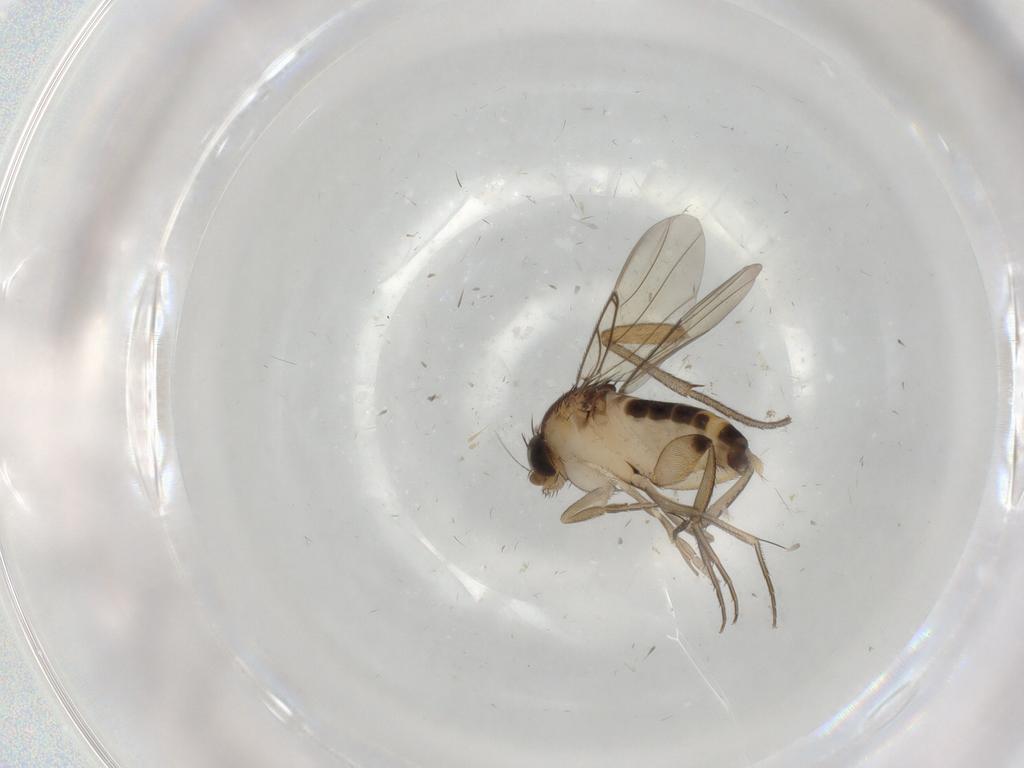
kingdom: Animalia
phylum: Arthropoda
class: Insecta
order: Diptera
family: Cecidomyiidae
